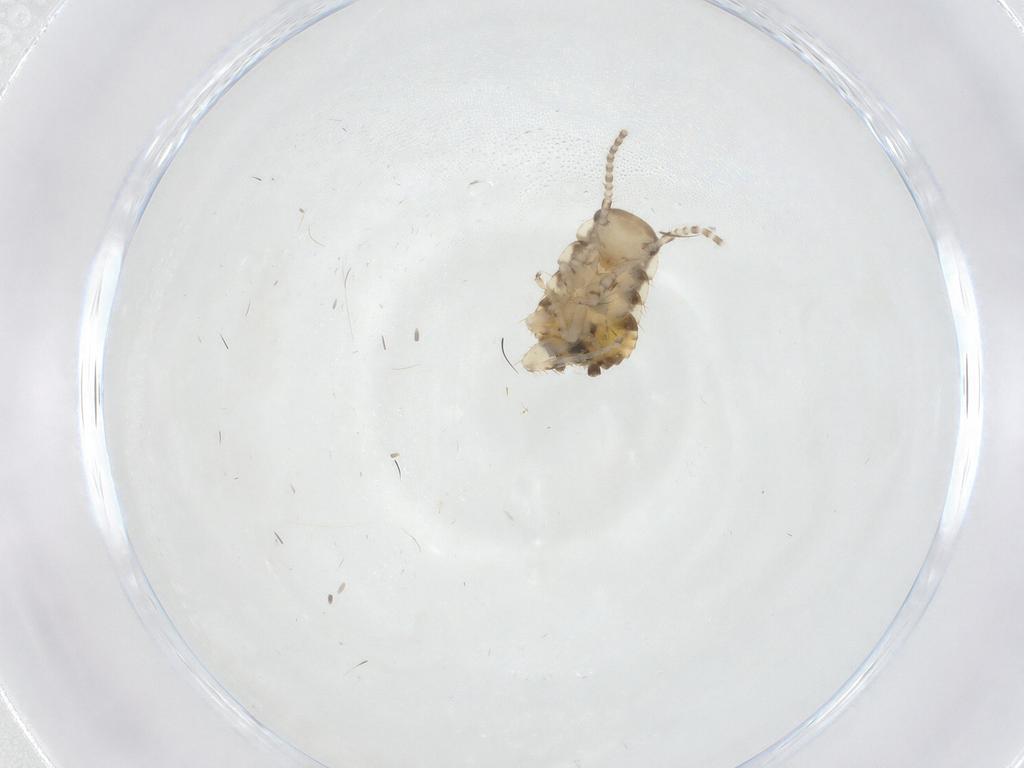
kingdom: Animalia
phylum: Arthropoda
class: Insecta
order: Blattodea
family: Ectobiidae
